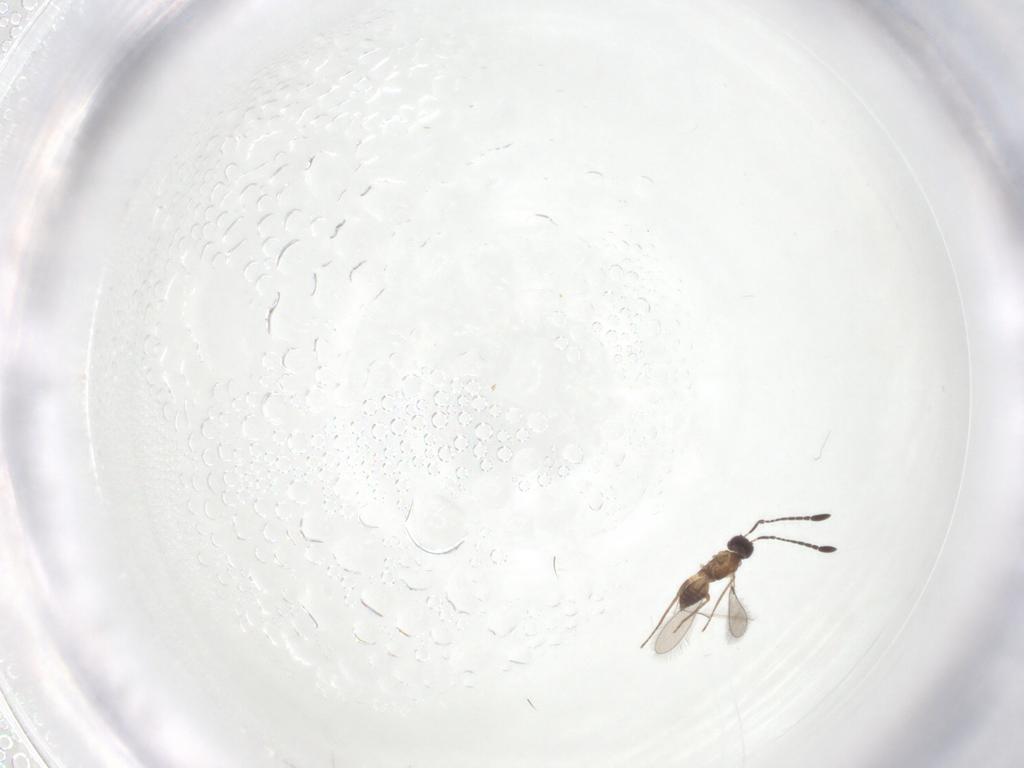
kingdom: Animalia
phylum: Arthropoda
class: Insecta
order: Hymenoptera
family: Mymaridae
